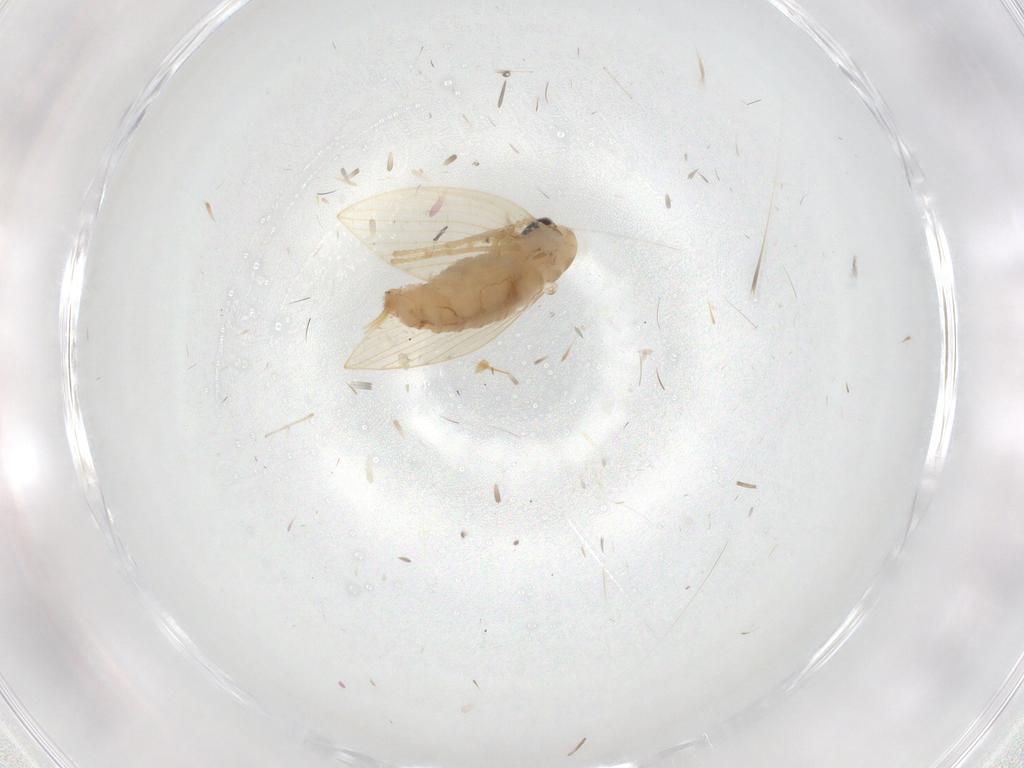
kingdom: Animalia
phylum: Arthropoda
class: Insecta
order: Diptera
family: Psychodidae
